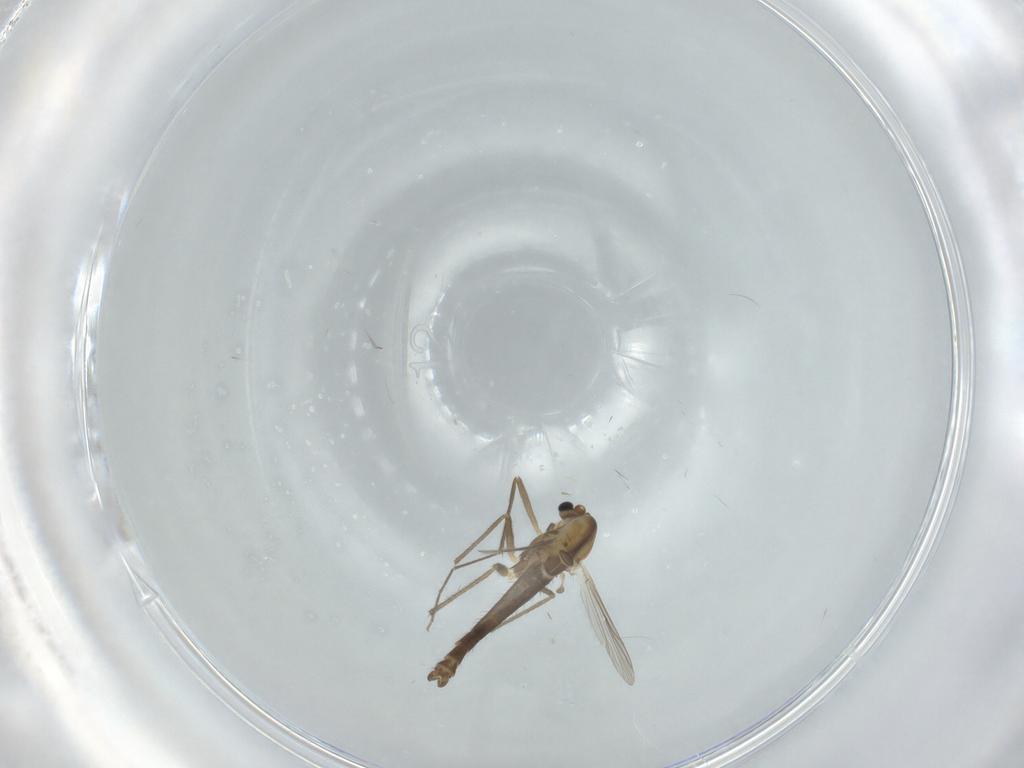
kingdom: Animalia
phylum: Arthropoda
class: Insecta
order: Diptera
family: Chironomidae
